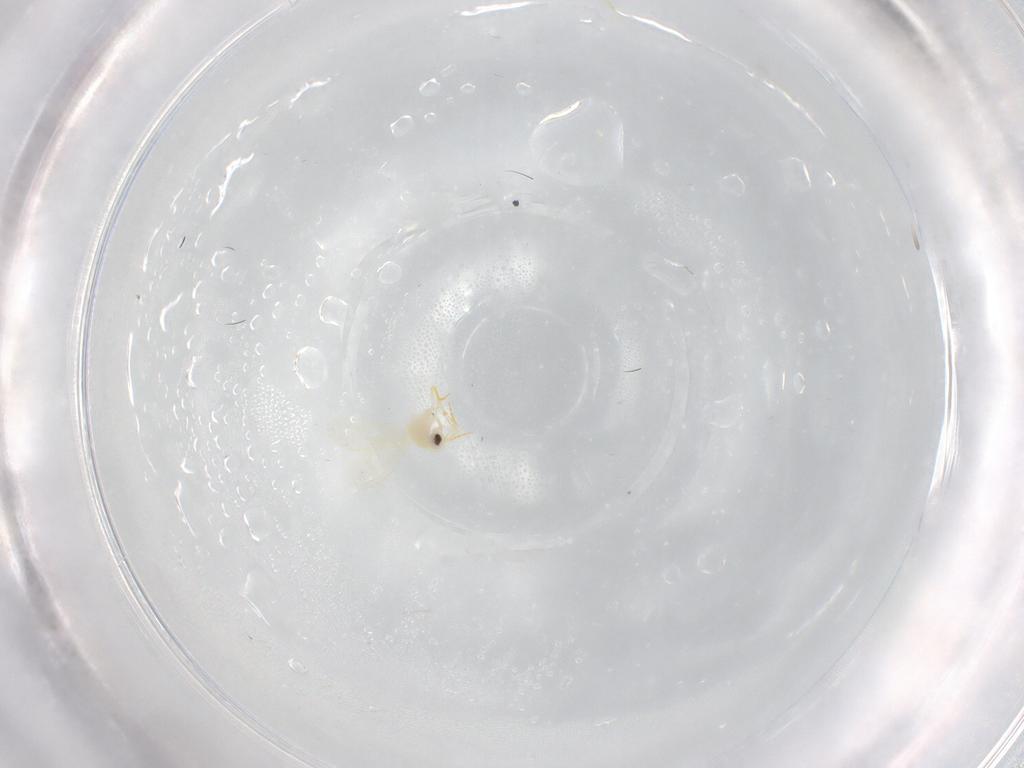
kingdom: Animalia
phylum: Arthropoda
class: Insecta
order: Hemiptera
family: Aleyrodidae
